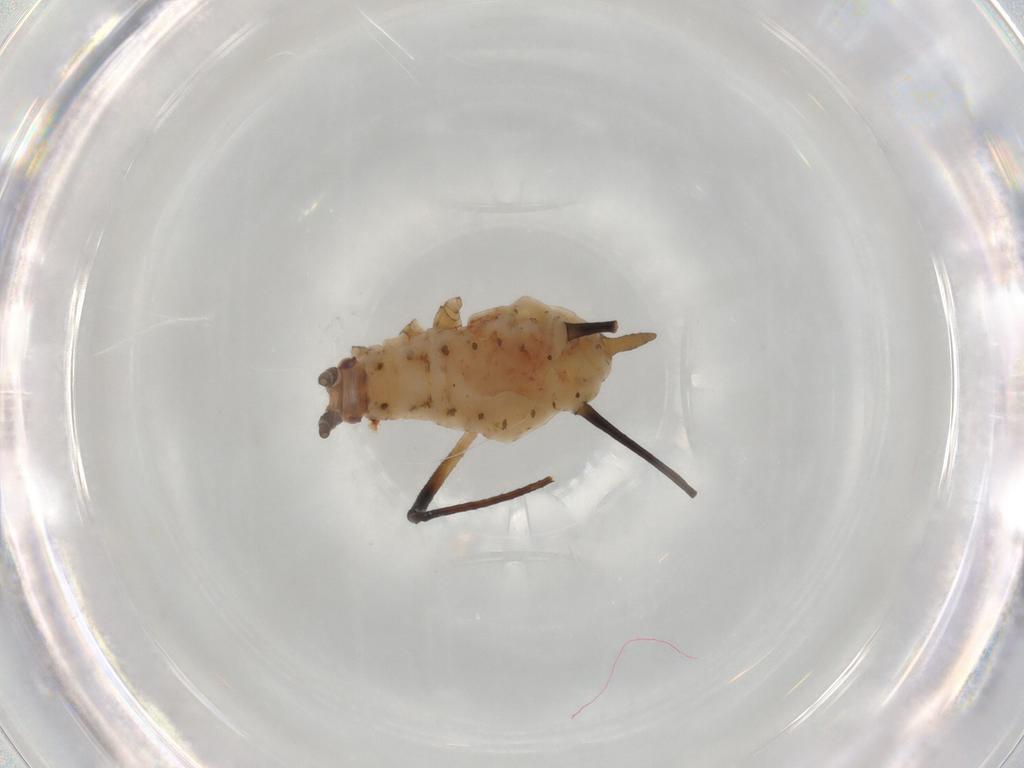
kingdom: Animalia
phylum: Arthropoda
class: Insecta
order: Hemiptera
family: Aphididae
